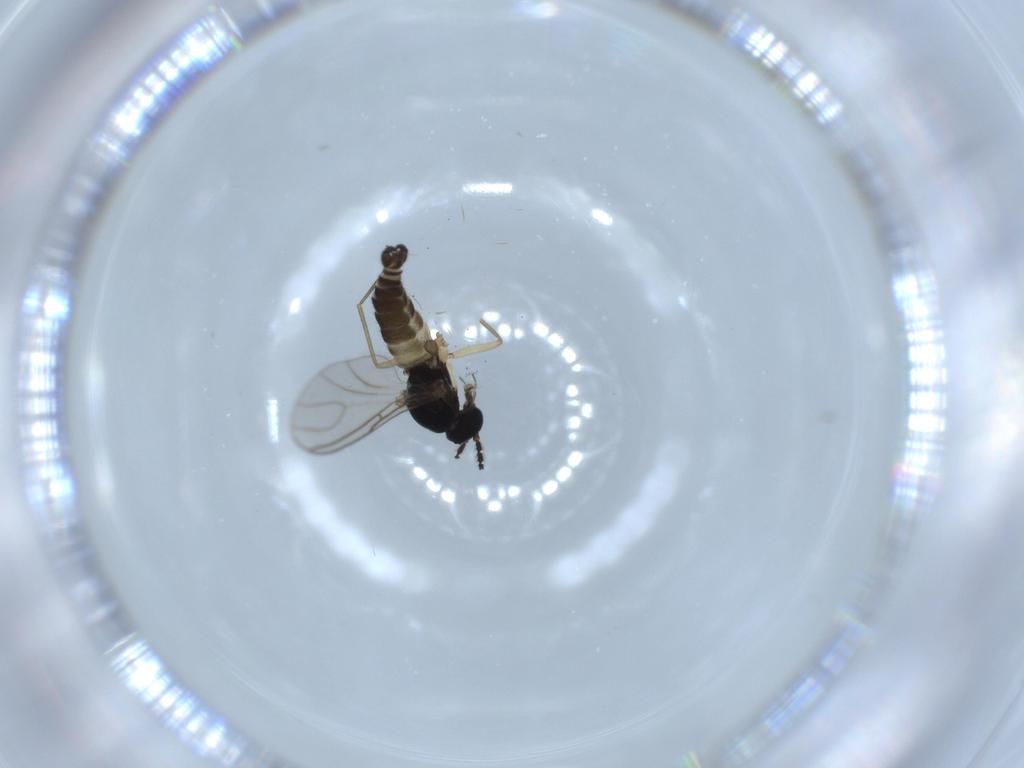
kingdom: Animalia
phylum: Arthropoda
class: Insecta
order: Diptera
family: Sciaridae
